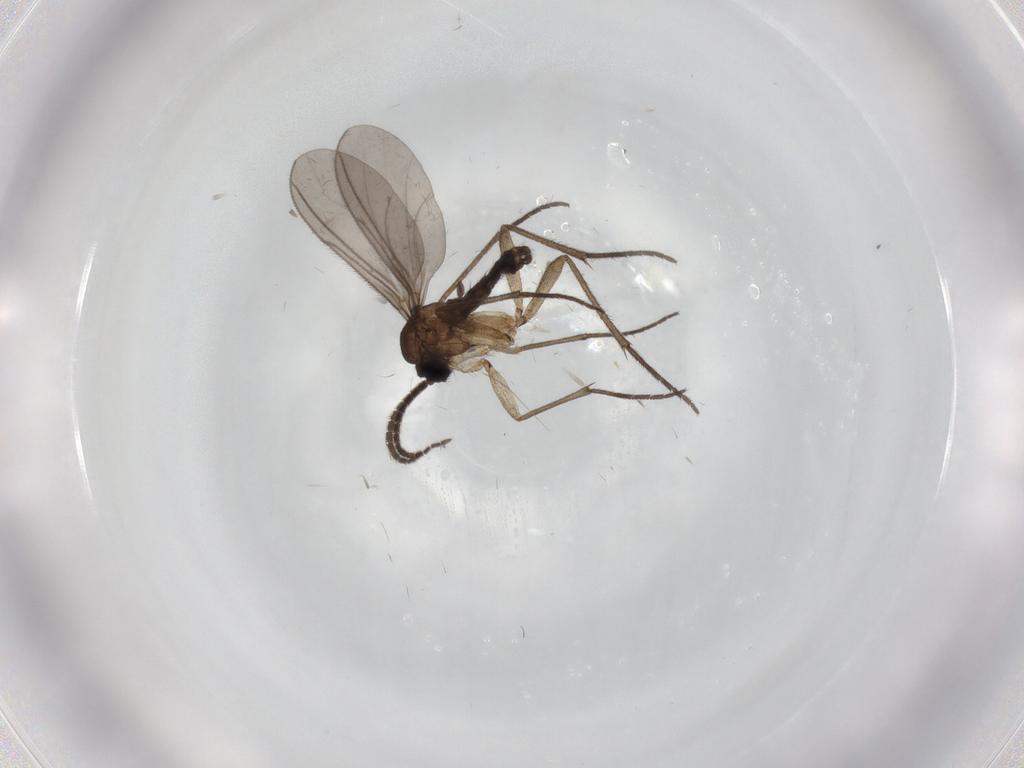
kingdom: Animalia
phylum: Arthropoda
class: Insecta
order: Diptera
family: Sciaridae
